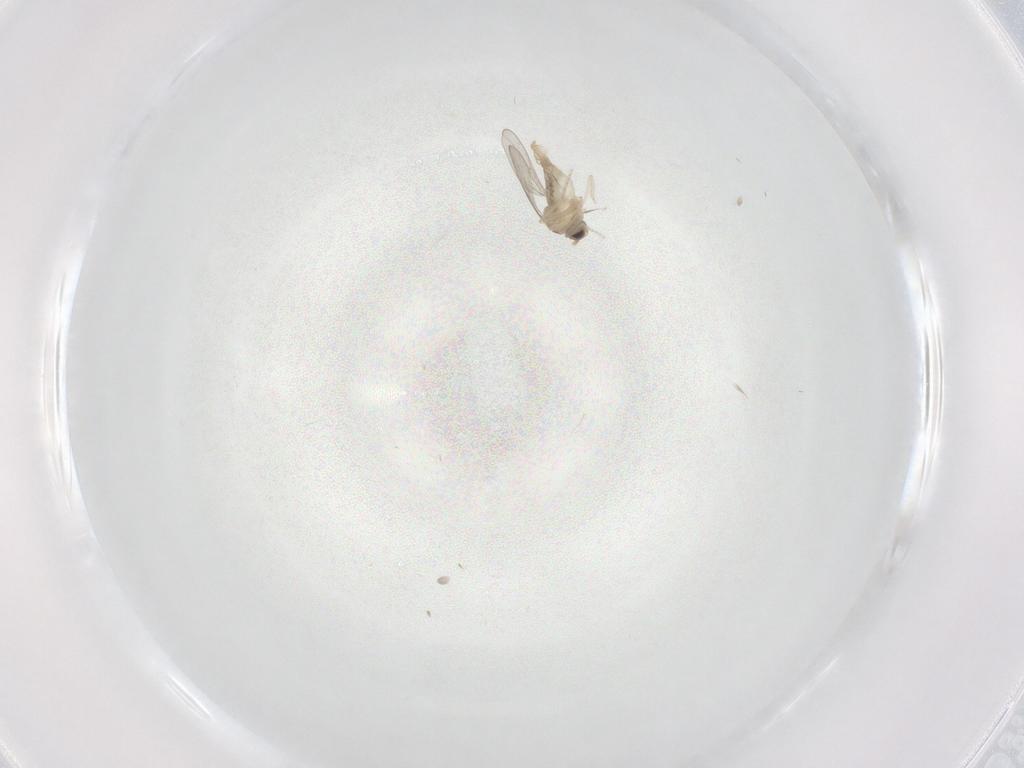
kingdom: Animalia
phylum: Arthropoda
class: Insecta
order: Diptera
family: Cecidomyiidae
